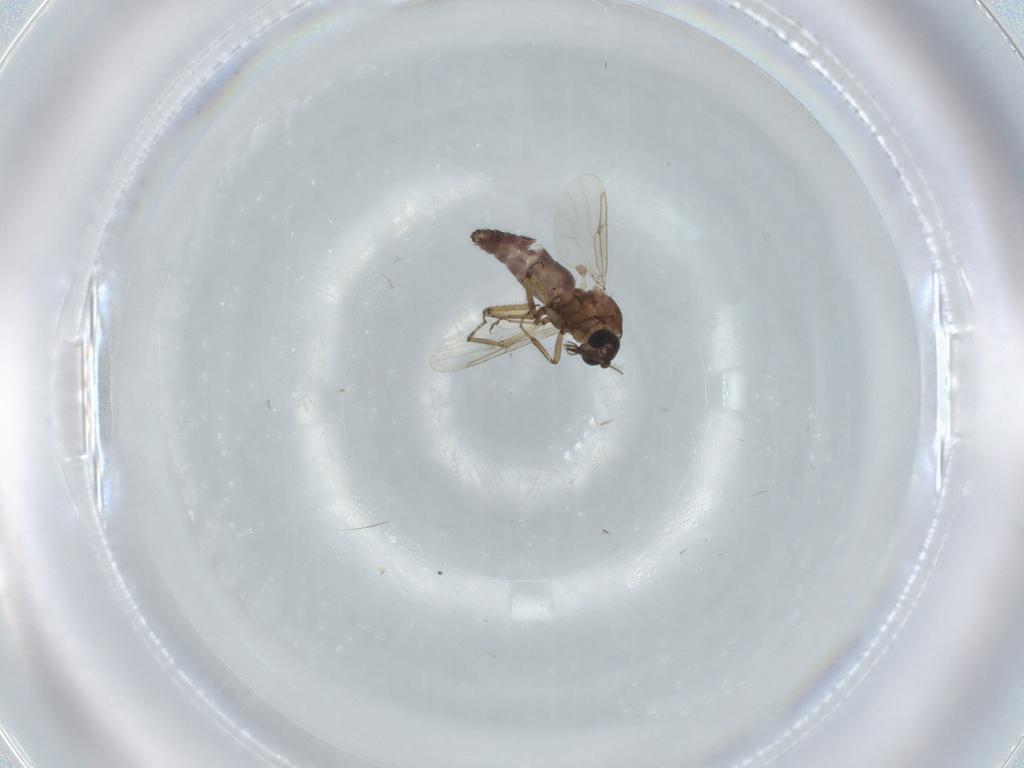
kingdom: Animalia
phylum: Arthropoda
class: Insecta
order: Diptera
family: Ceratopogonidae
